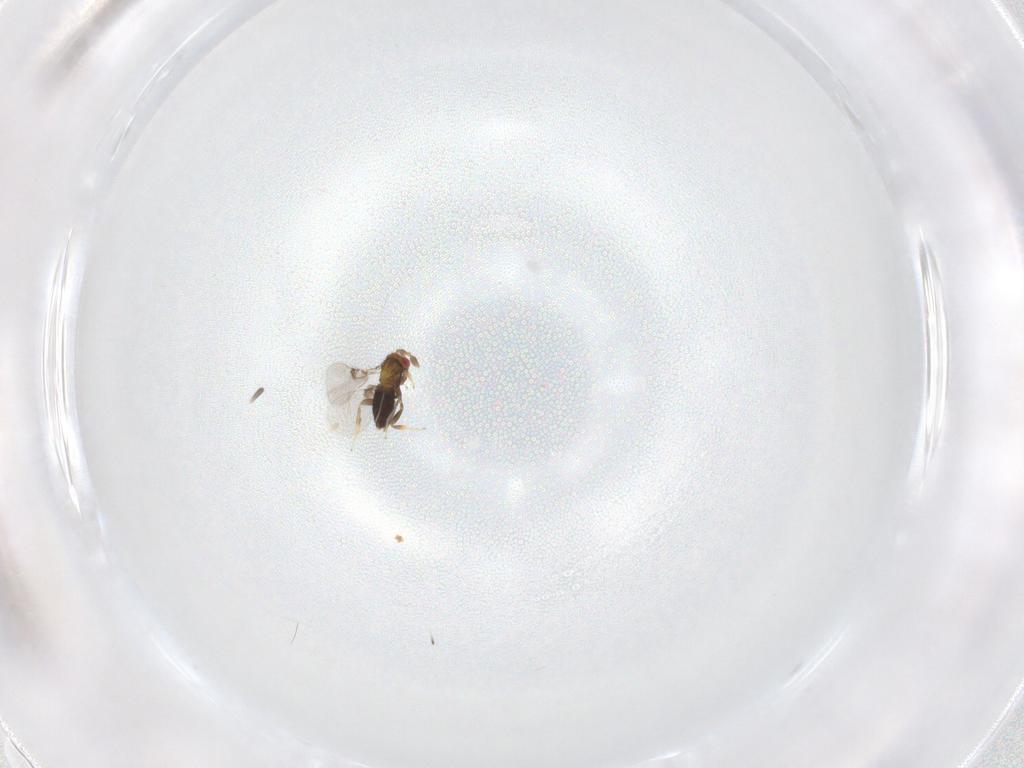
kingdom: Animalia
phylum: Arthropoda
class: Insecta
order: Hymenoptera
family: Trichogrammatidae
